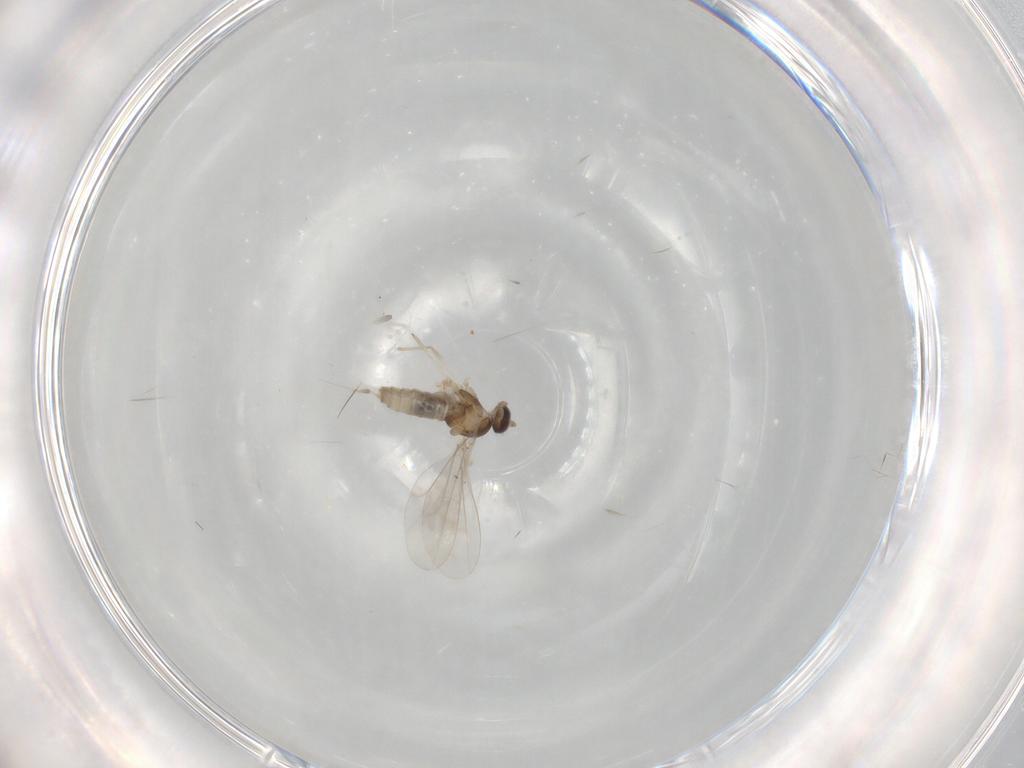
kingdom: Animalia
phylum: Arthropoda
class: Insecta
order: Diptera
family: Cecidomyiidae
